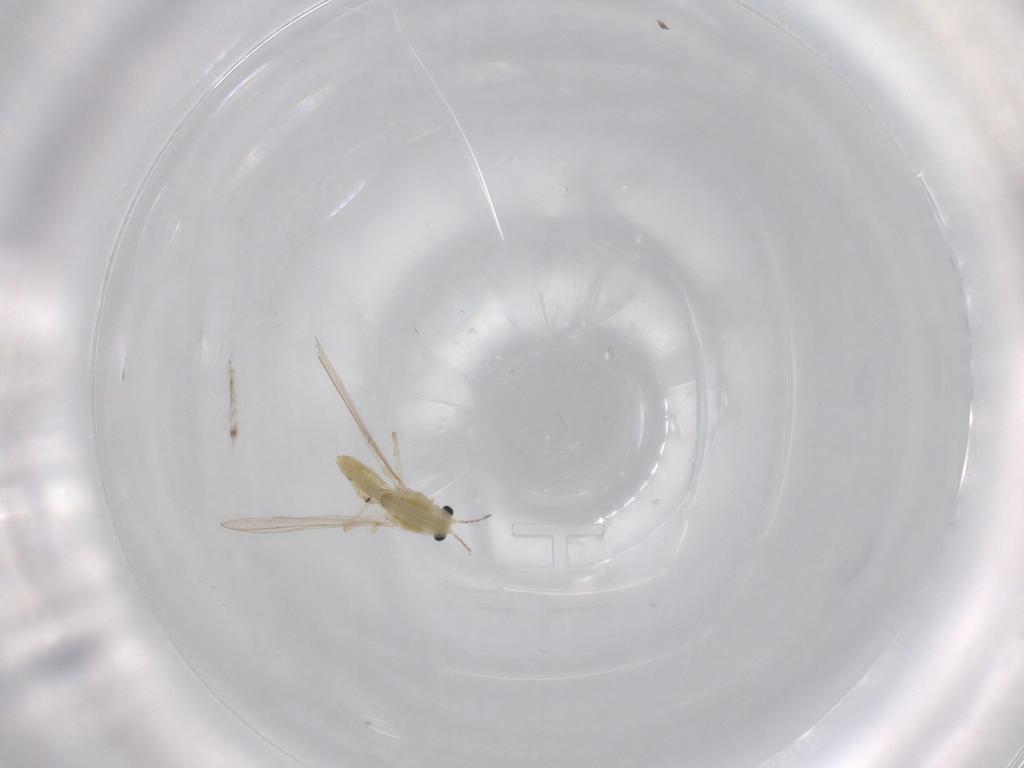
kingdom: Animalia
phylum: Arthropoda
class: Insecta
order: Diptera
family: Chironomidae
